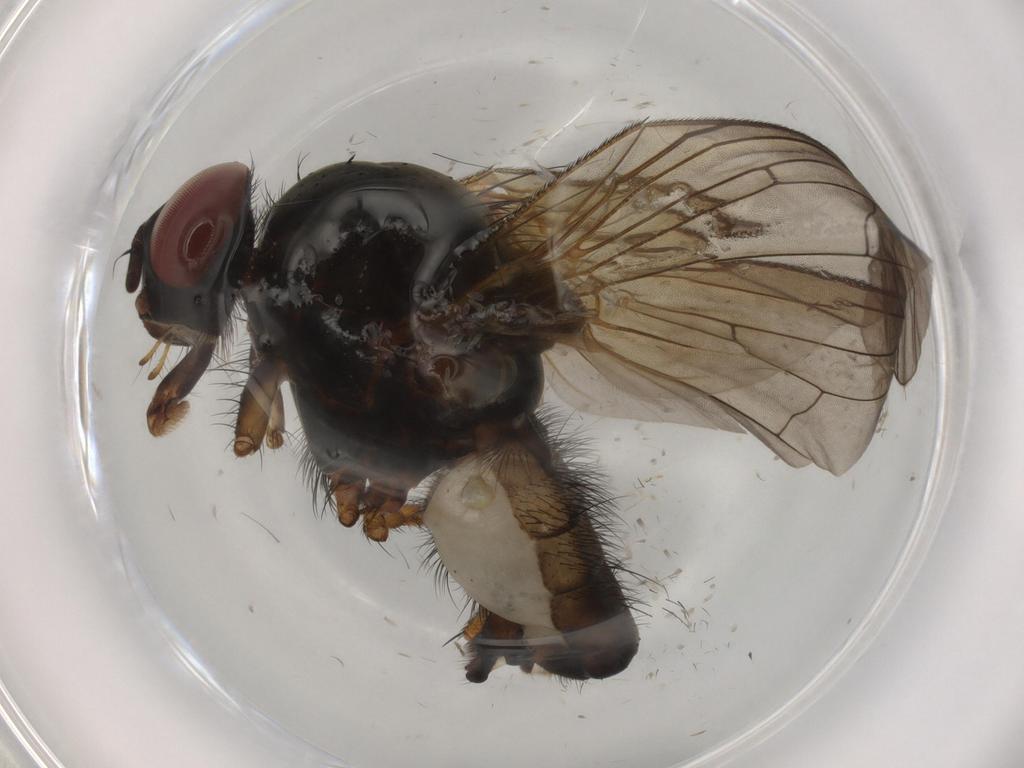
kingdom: Animalia
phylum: Arthropoda
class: Insecta
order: Diptera
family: Anthomyiidae
